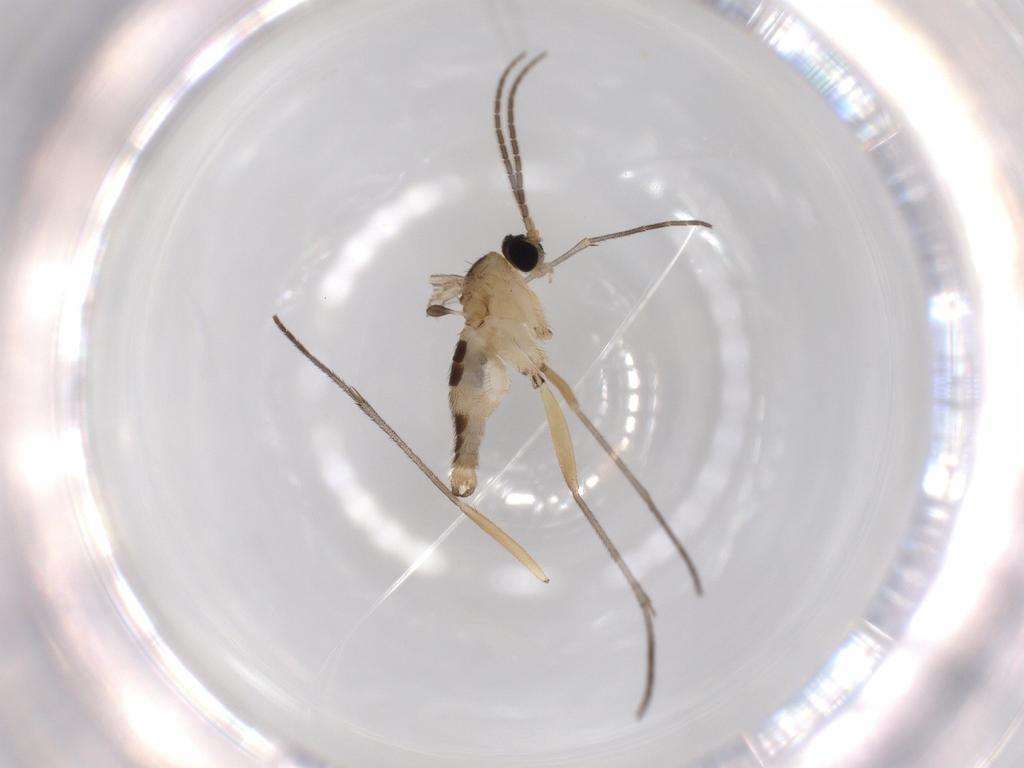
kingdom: Animalia
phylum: Arthropoda
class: Insecta
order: Diptera
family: Sciaridae
